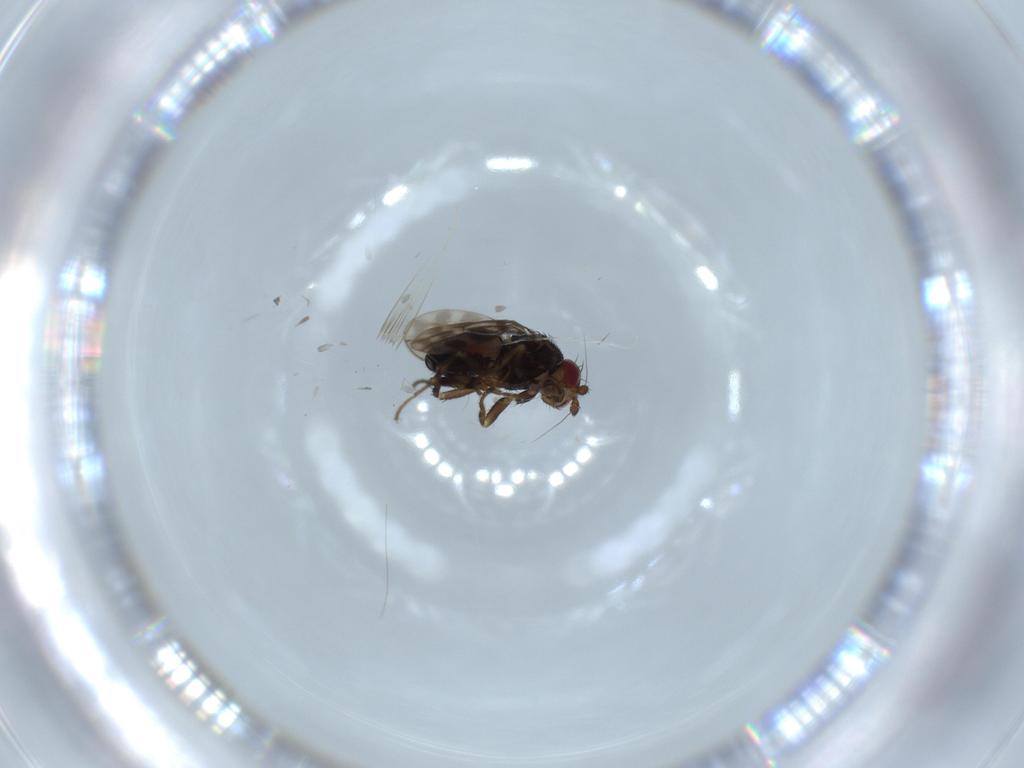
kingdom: Animalia
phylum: Arthropoda
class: Insecta
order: Diptera
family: Sphaeroceridae
